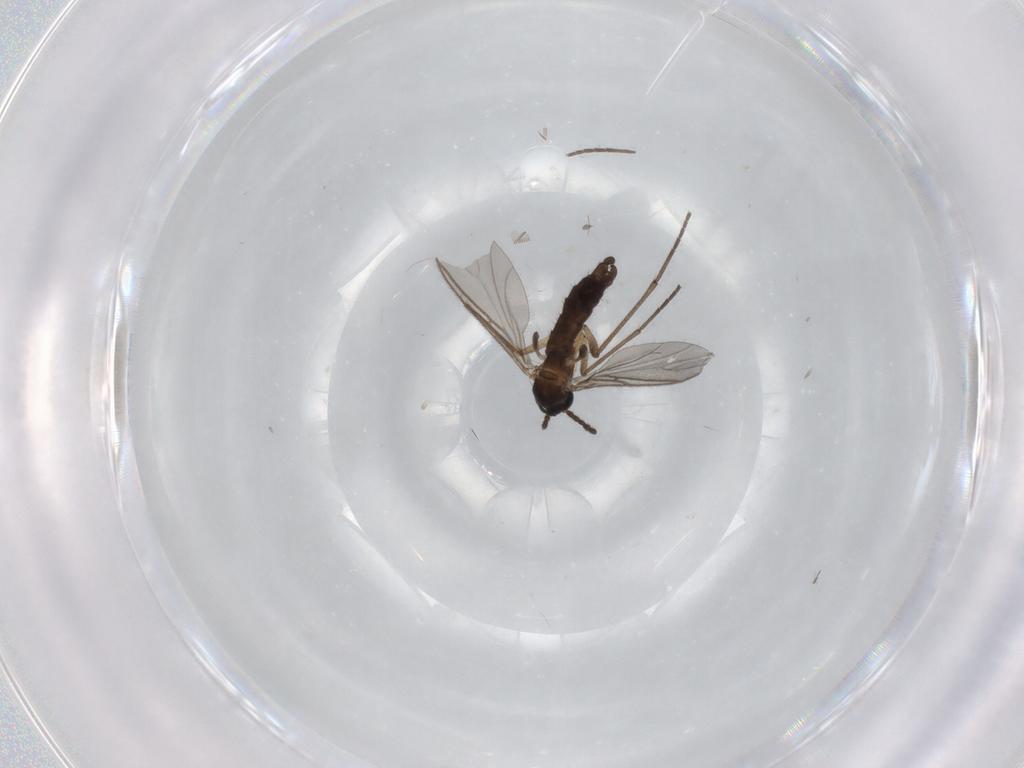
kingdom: Animalia
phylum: Arthropoda
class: Insecta
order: Diptera
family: Sciaridae
